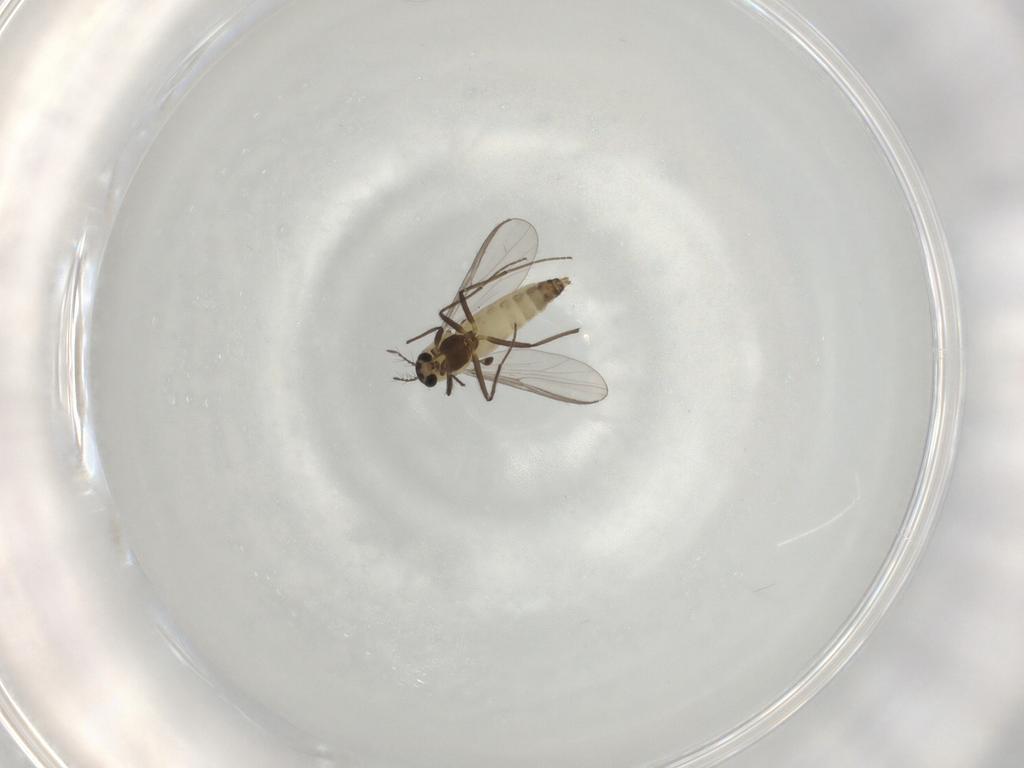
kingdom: Animalia
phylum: Arthropoda
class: Insecta
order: Diptera
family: Chironomidae
